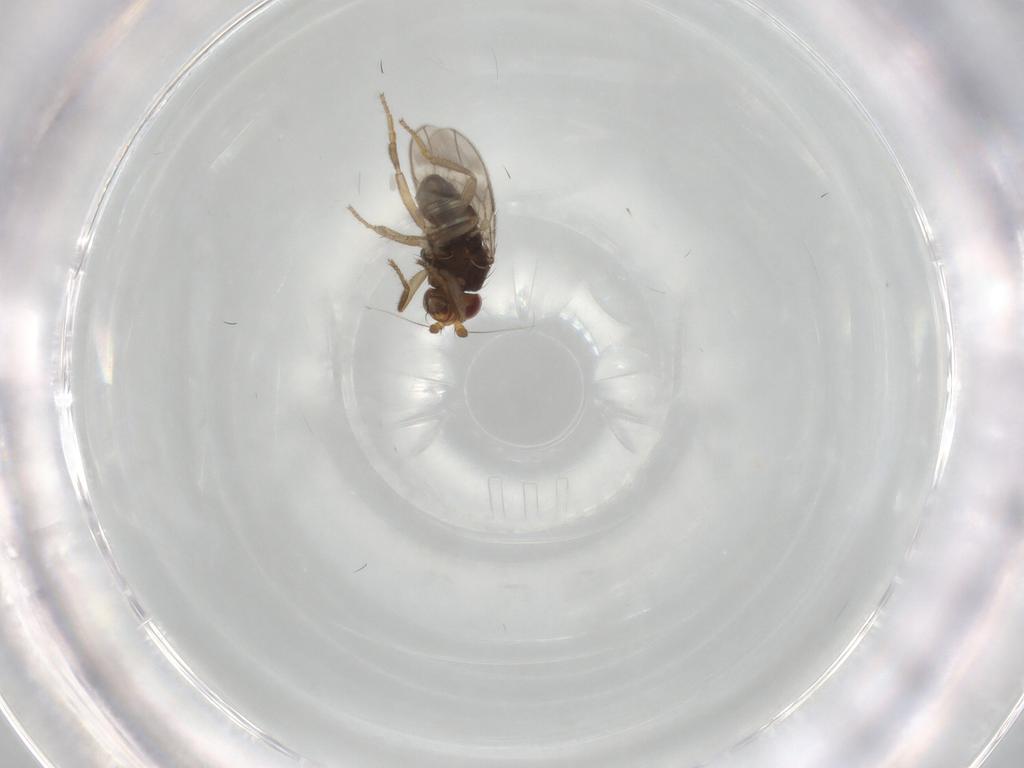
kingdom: Animalia
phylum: Arthropoda
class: Insecta
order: Diptera
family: Sphaeroceridae
